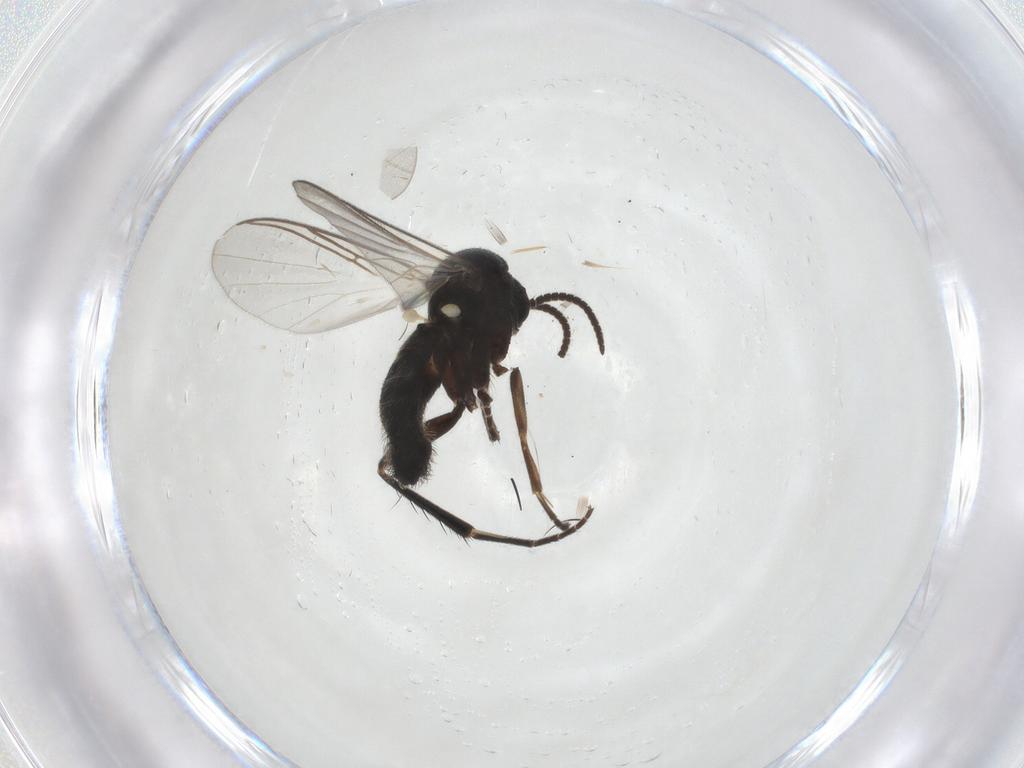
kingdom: Animalia
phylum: Arthropoda
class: Insecta
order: Diptera
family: Mycetophilidae
